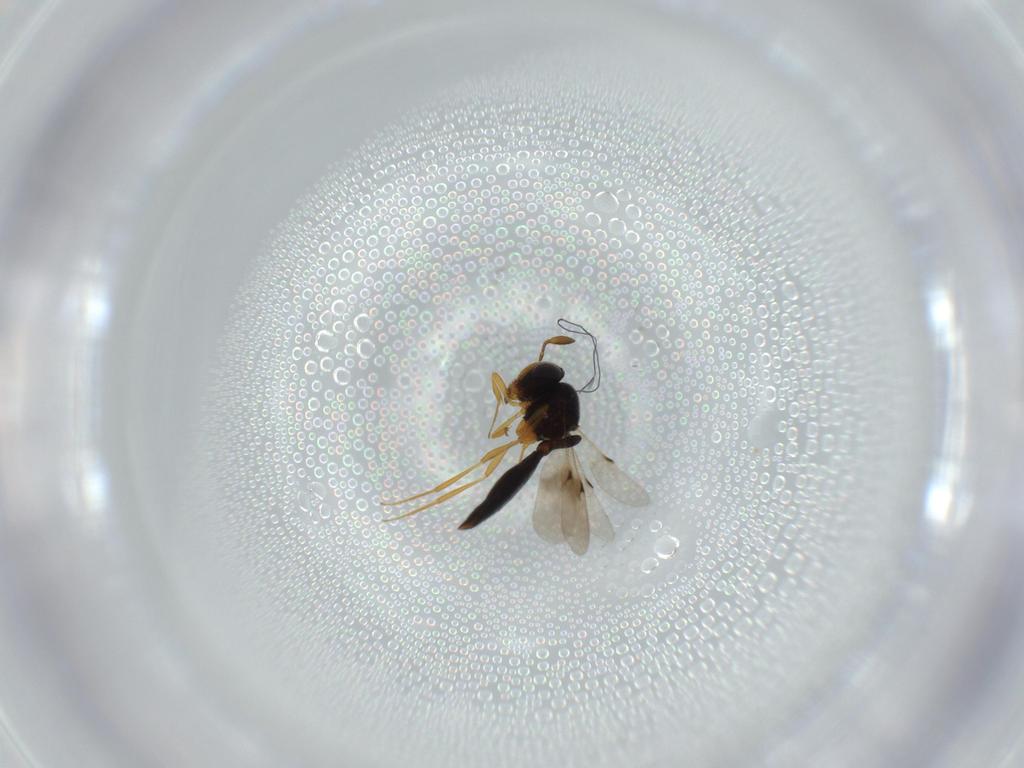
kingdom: Animalia
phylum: Arthropoda
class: Insecta
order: Hymenoptera
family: Scelionidae
